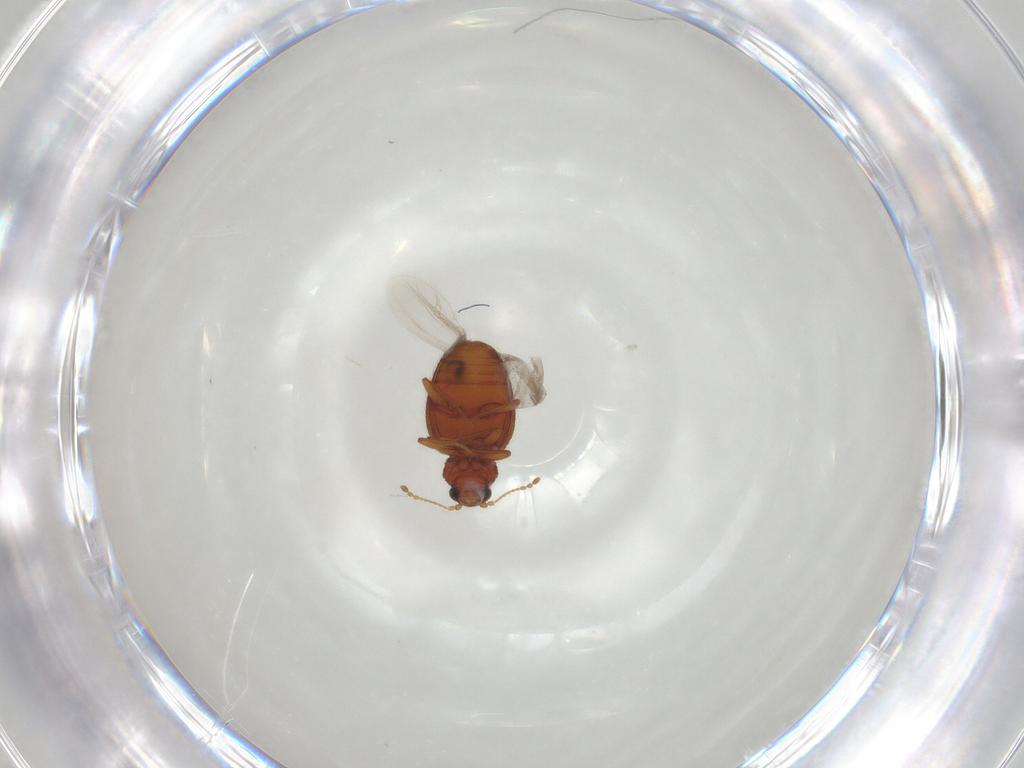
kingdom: Animalia
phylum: Arthropoda
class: Insecta
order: Coleoptera
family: Latridiidae
